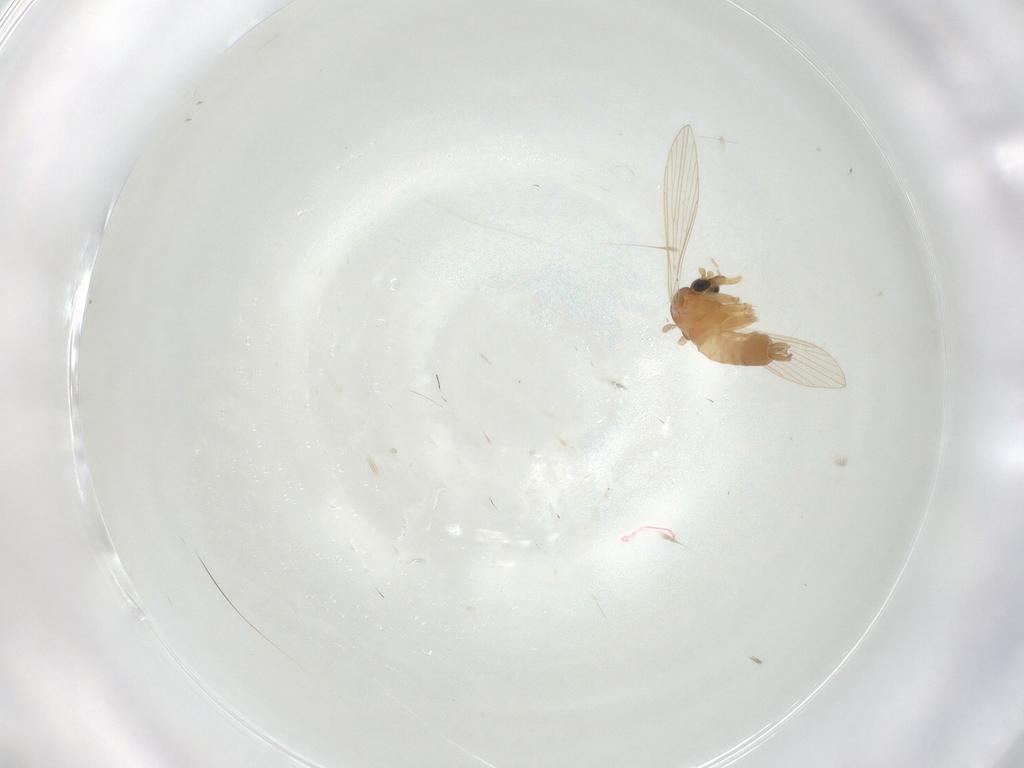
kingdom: Animalia
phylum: Arthropoda
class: Insecta
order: Diptera
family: Psychodidae
